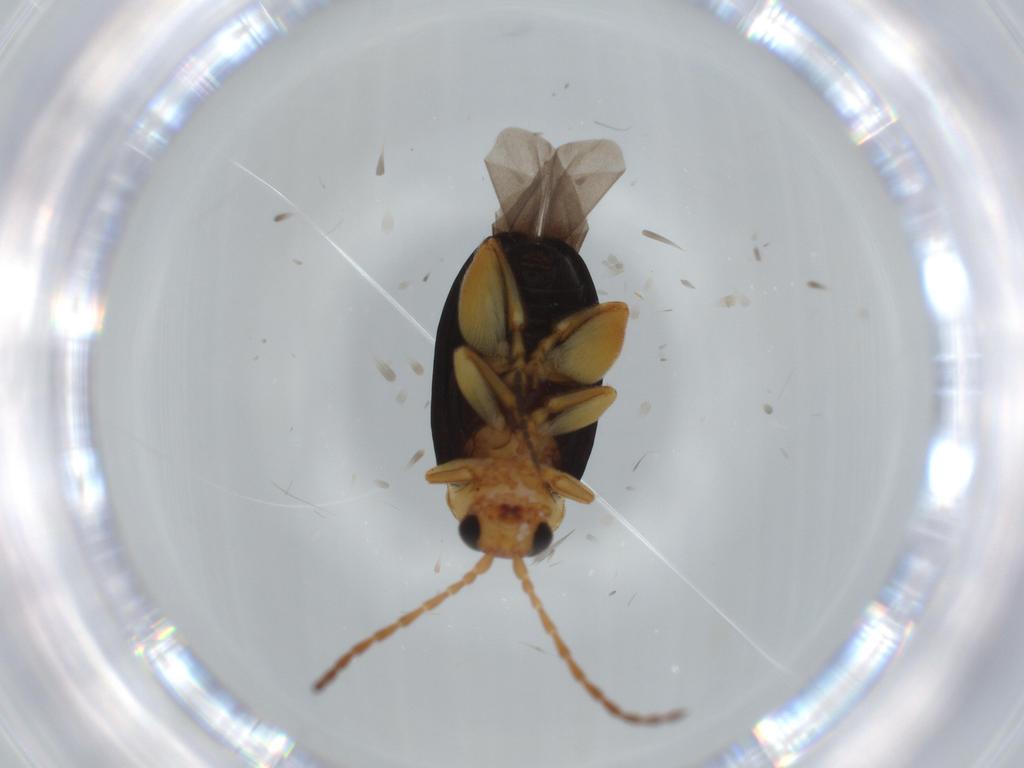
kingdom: Animalia
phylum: Arthropoda
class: Insecta
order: Coleoptera
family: Staphylinidae
